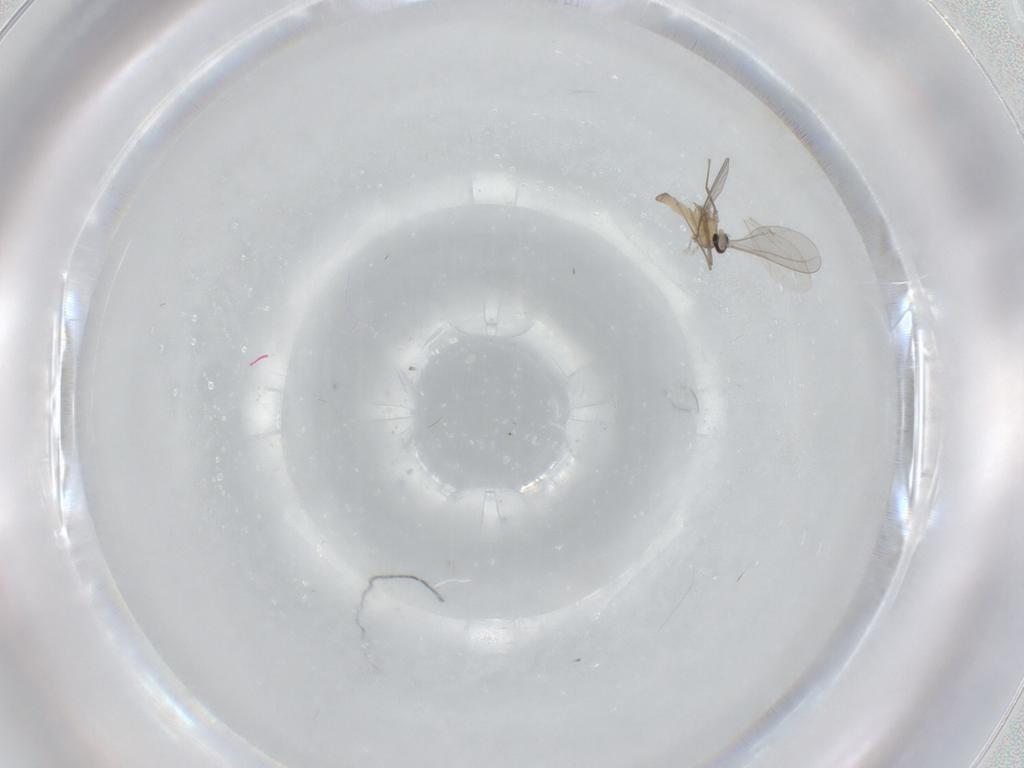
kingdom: Animalia
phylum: Arthropoda
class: Insecta
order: Diptera
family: Cecidomyiidae
